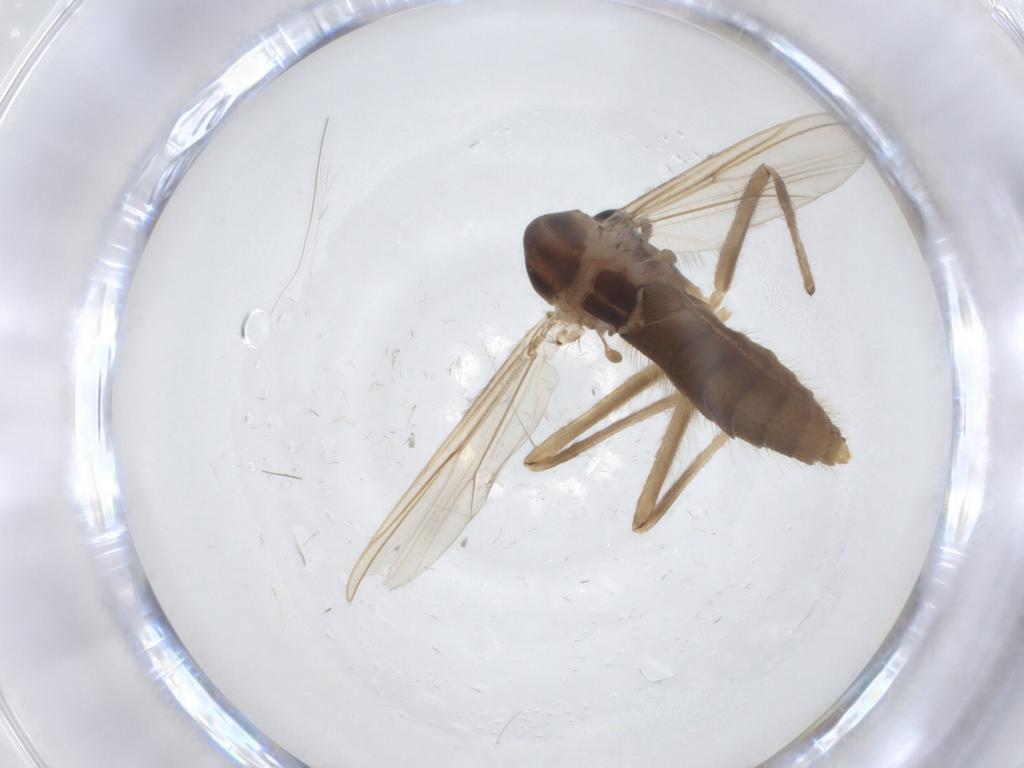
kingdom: Animalia
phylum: Arthropoda
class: Insecta
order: Diptera
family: Chironomidae
